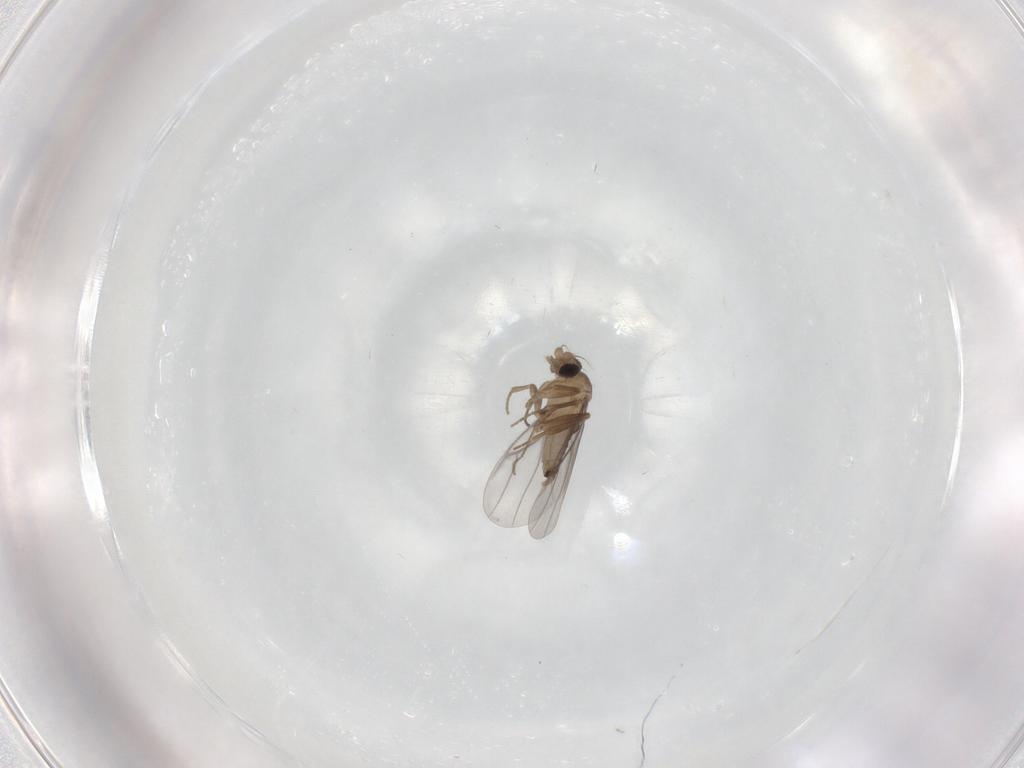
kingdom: Animalia
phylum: Arthropoda
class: Insecta
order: Diptera
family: Cecidomyiidae
